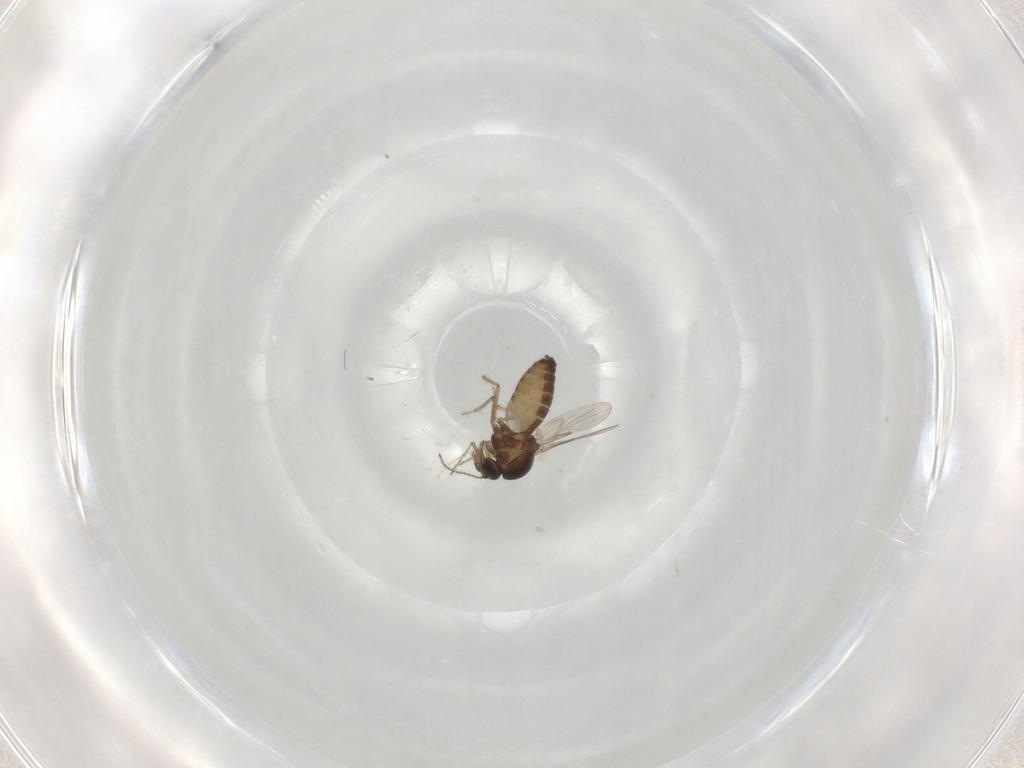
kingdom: Animalia
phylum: Arthropoda
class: Insecta
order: Diptera
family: Ceratopogonidae
